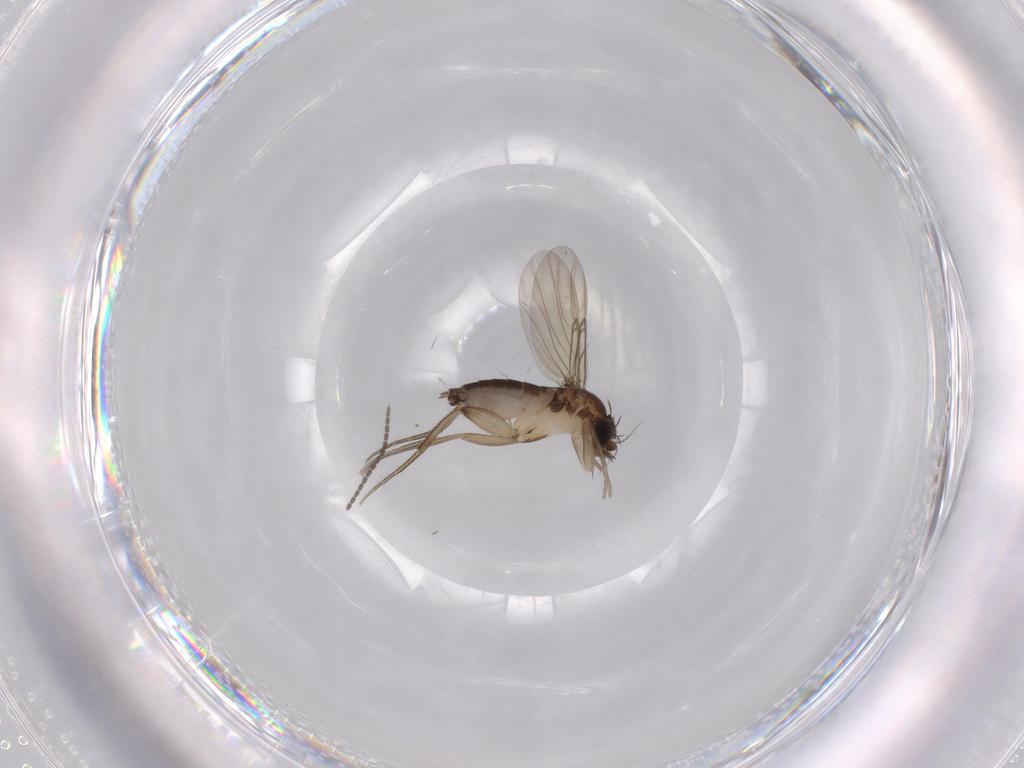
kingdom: Animalia
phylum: Arthropoda
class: Insecta
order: Diptera
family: Phoridae
